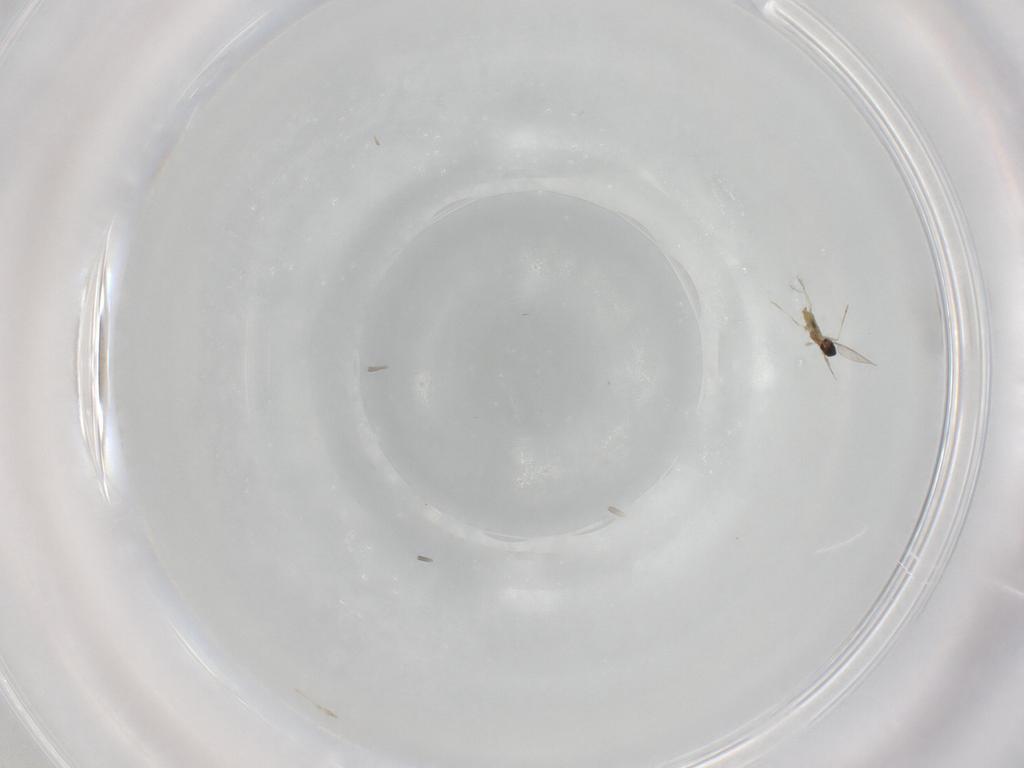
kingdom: Animalia
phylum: Arthropoda
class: Insecta
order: Diptera
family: Cecidomyiidae
